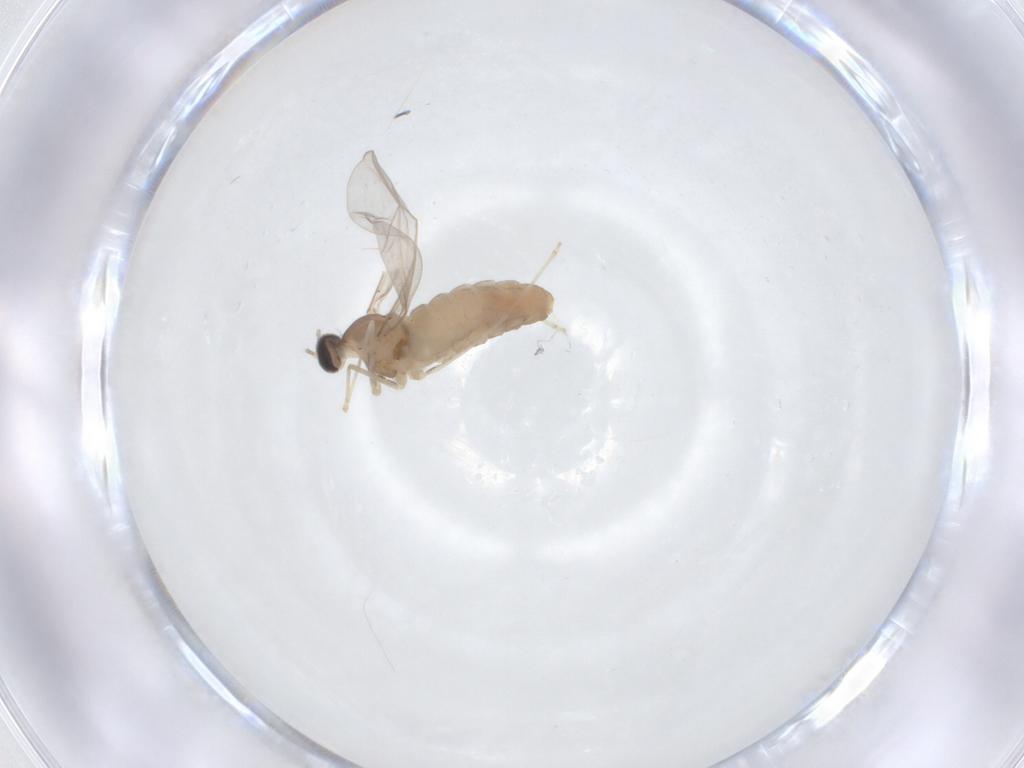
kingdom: Animalia
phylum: Arthropoda
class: Insecta
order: Diptera
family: Cecidomyiidae
